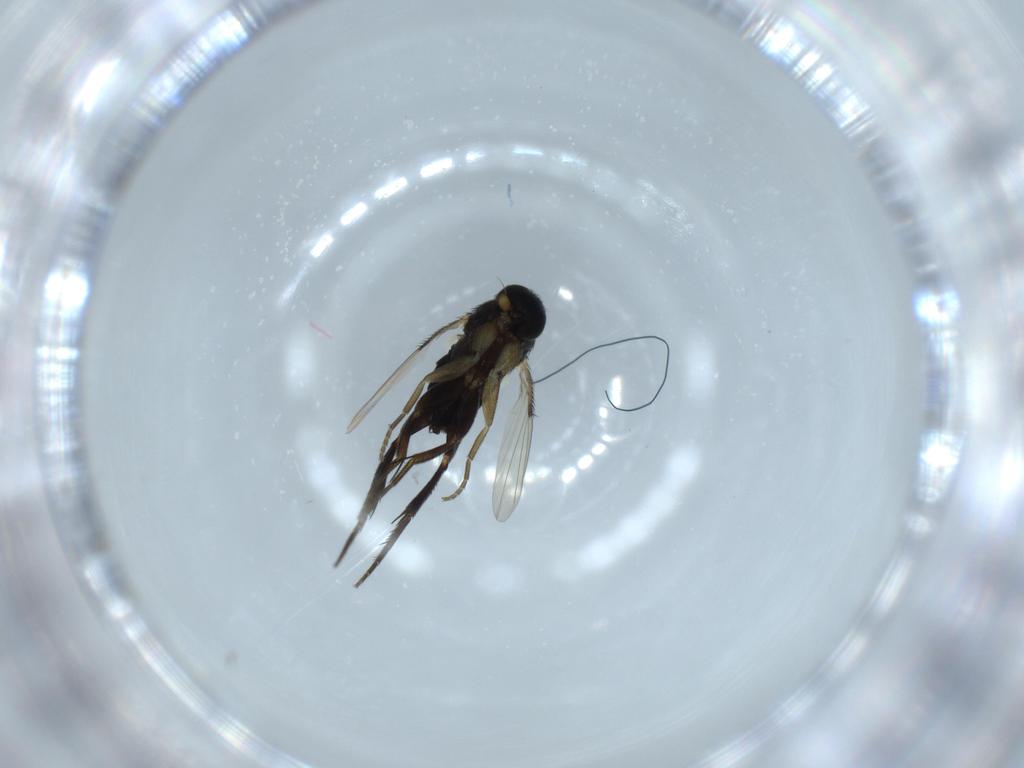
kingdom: Animalia
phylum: Arthropoda
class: Insecta
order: Diptera
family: Phoridae
